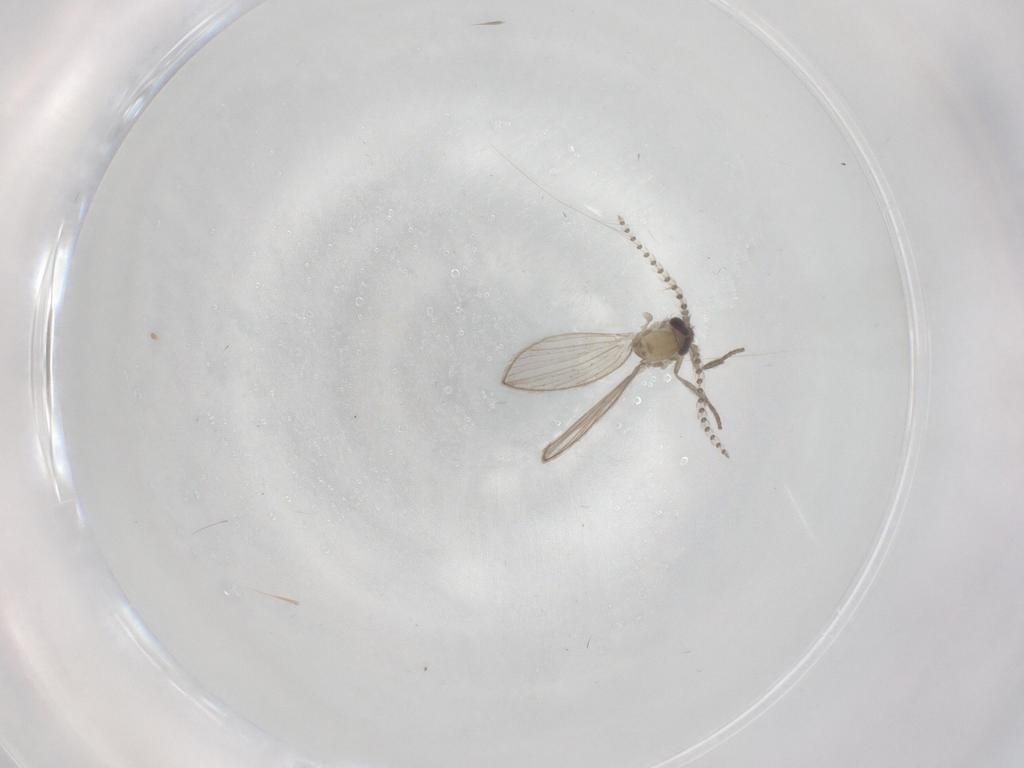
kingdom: Animalia
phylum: Arthropoda
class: Insecta
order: Diptera
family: Psychodidae
